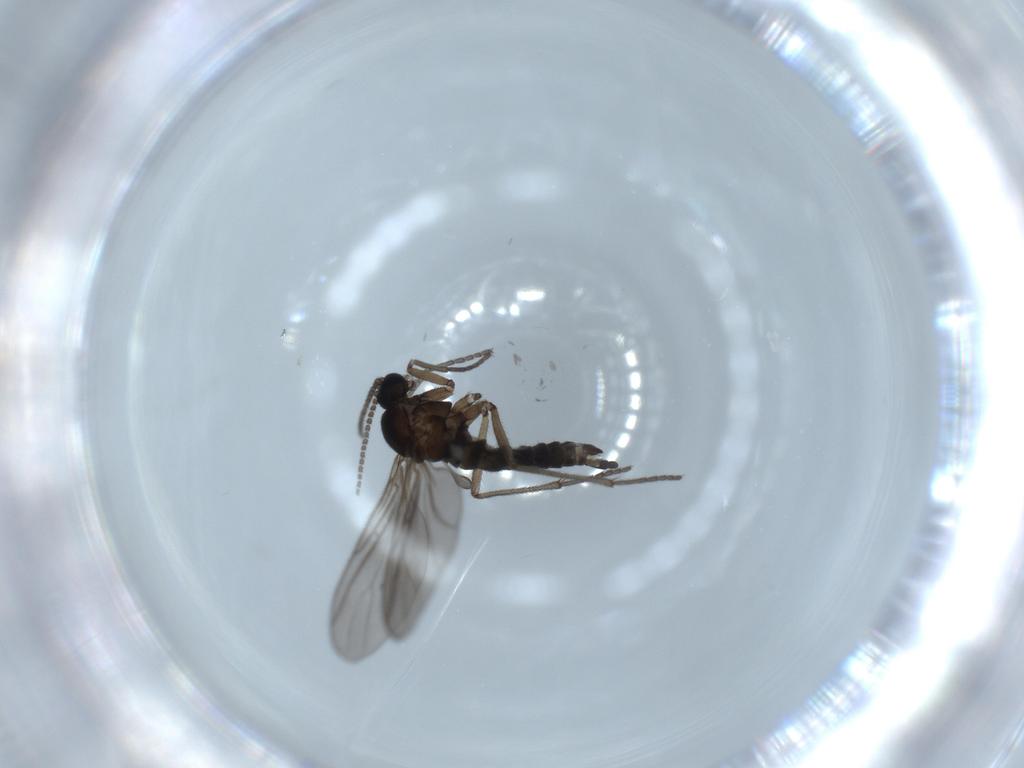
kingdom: Animalia
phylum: Arthropoda
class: Insecta
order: Diptera
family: Sciaridae
